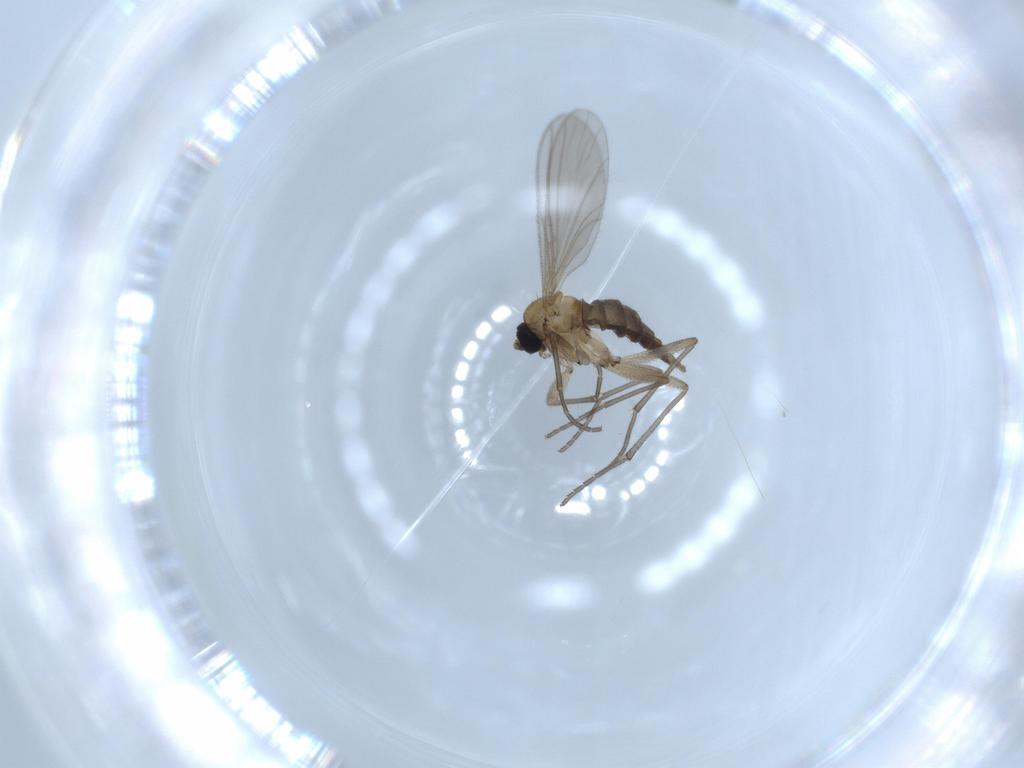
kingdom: Animalia
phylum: Arthropoda
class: Insecta
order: Diptera
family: Sciaridae
